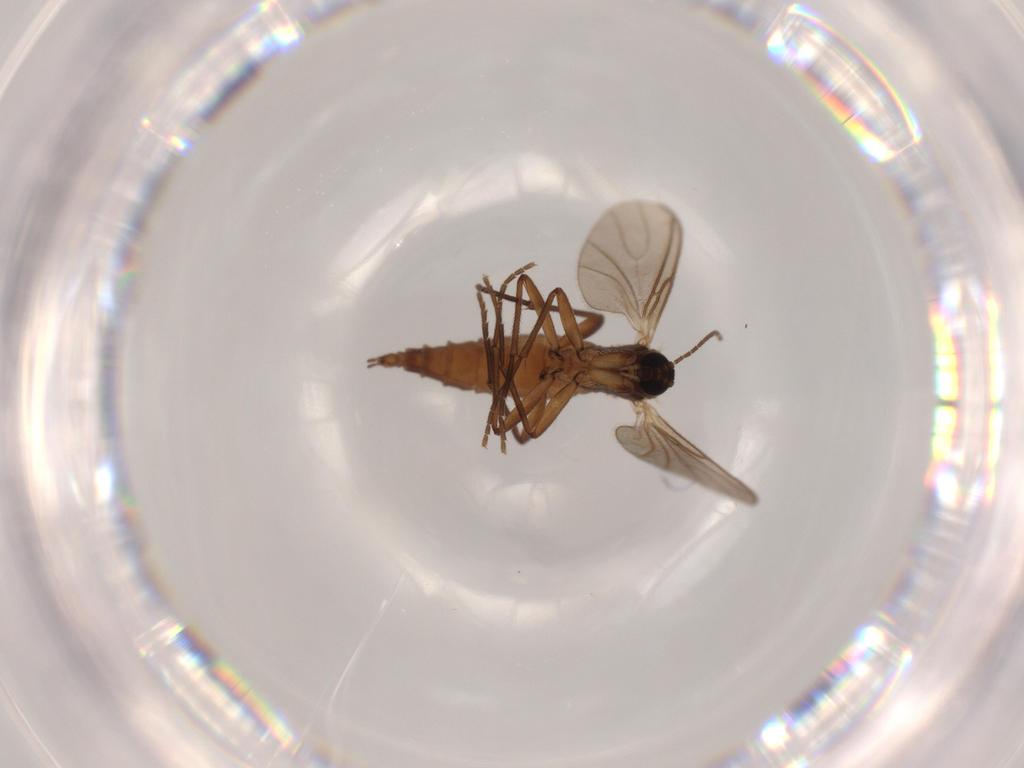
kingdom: Animalia
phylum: Arthropoda
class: Insecta
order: Diptera
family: Sciaridae
